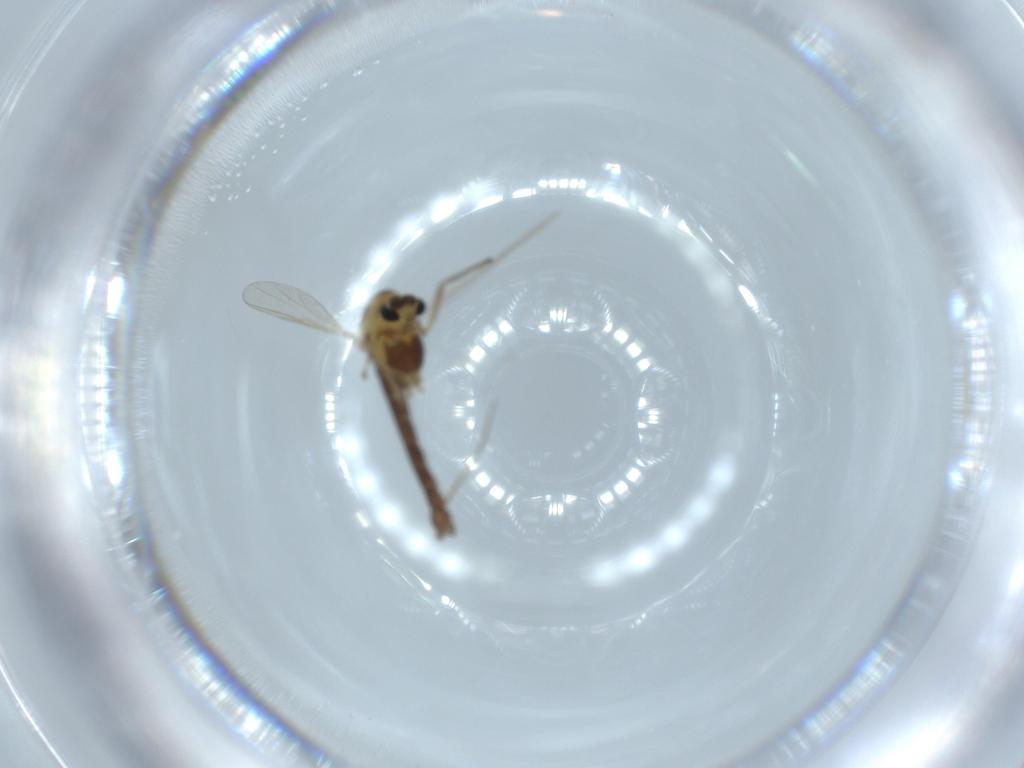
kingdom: Animalia
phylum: Arthropoda
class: Insecta
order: Diptera
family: Chironomidae
